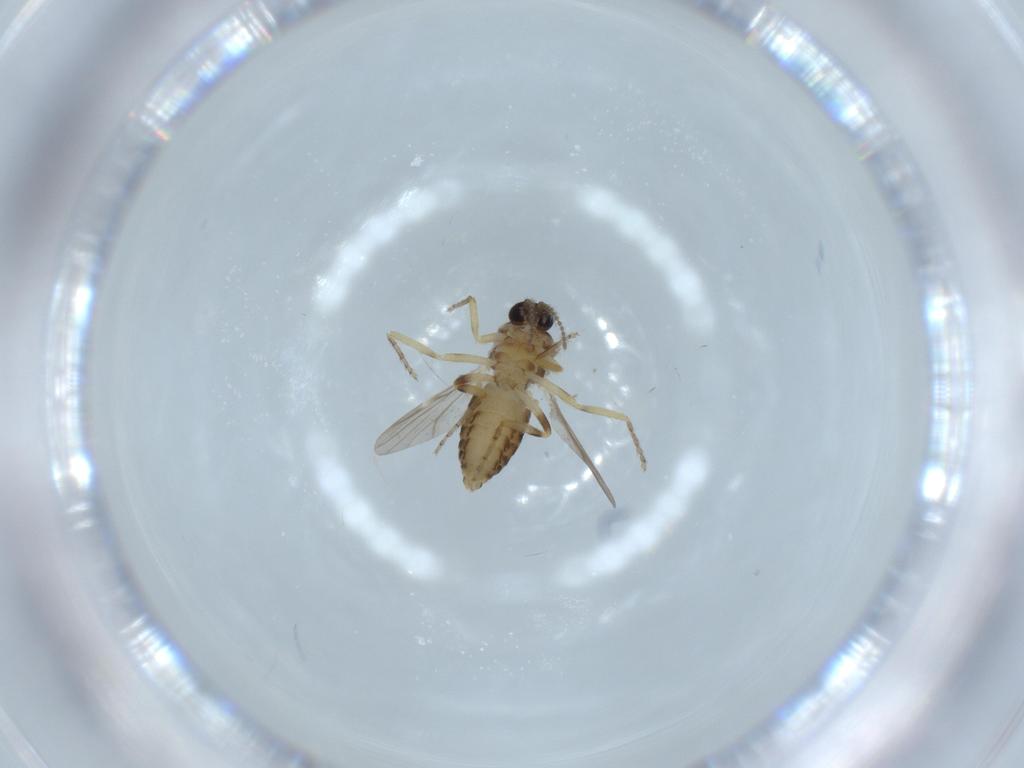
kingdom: Animalia
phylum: Arthropoda
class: Insecta
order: Diptera
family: Ceratopogonidae
